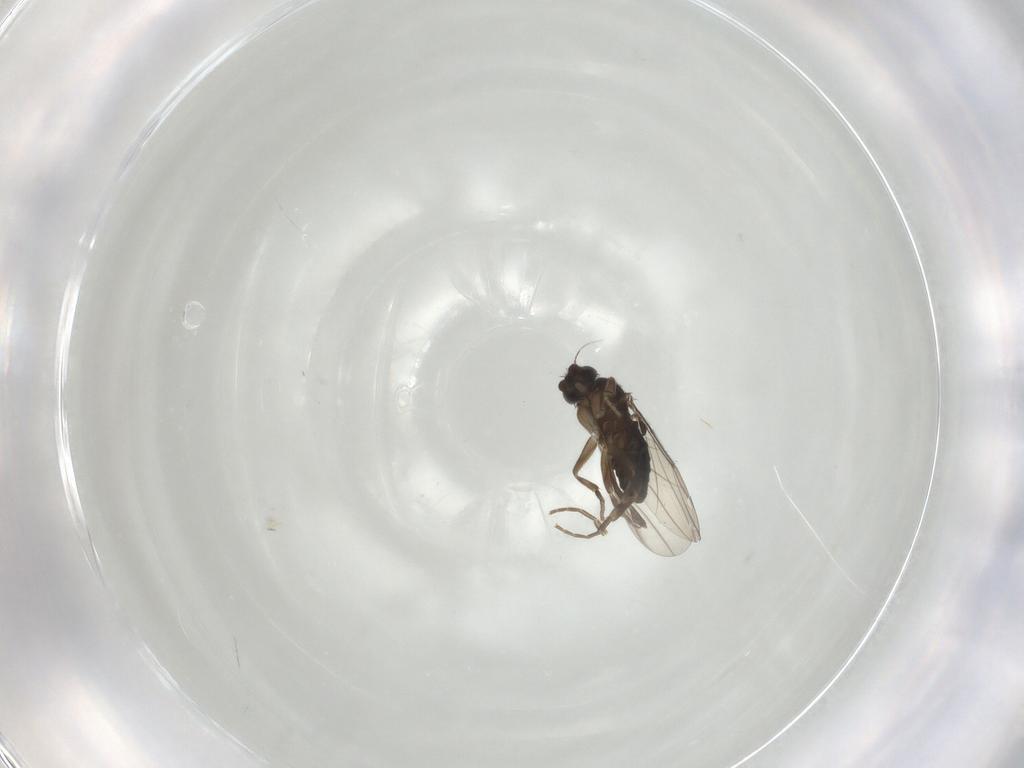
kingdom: Animalia
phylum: Arthropoda
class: Insecta
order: Diptera
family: Phoridae
